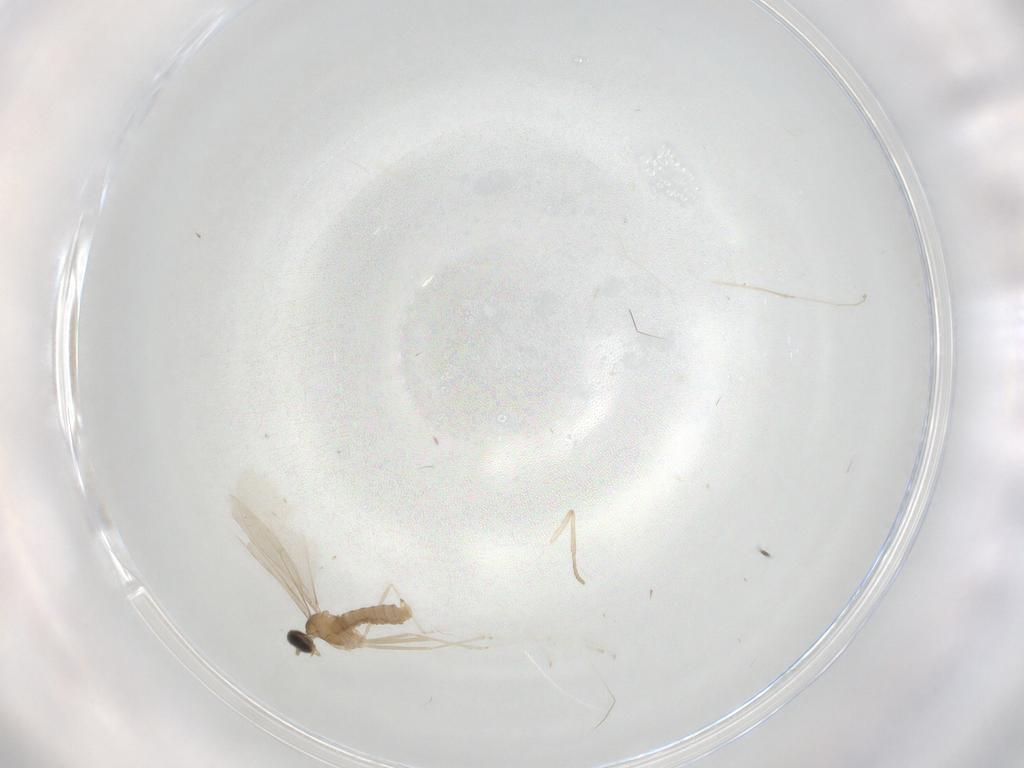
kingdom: Animalia
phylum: Arthropoda
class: Insecta
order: Diptera
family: Cecidomyiidae
